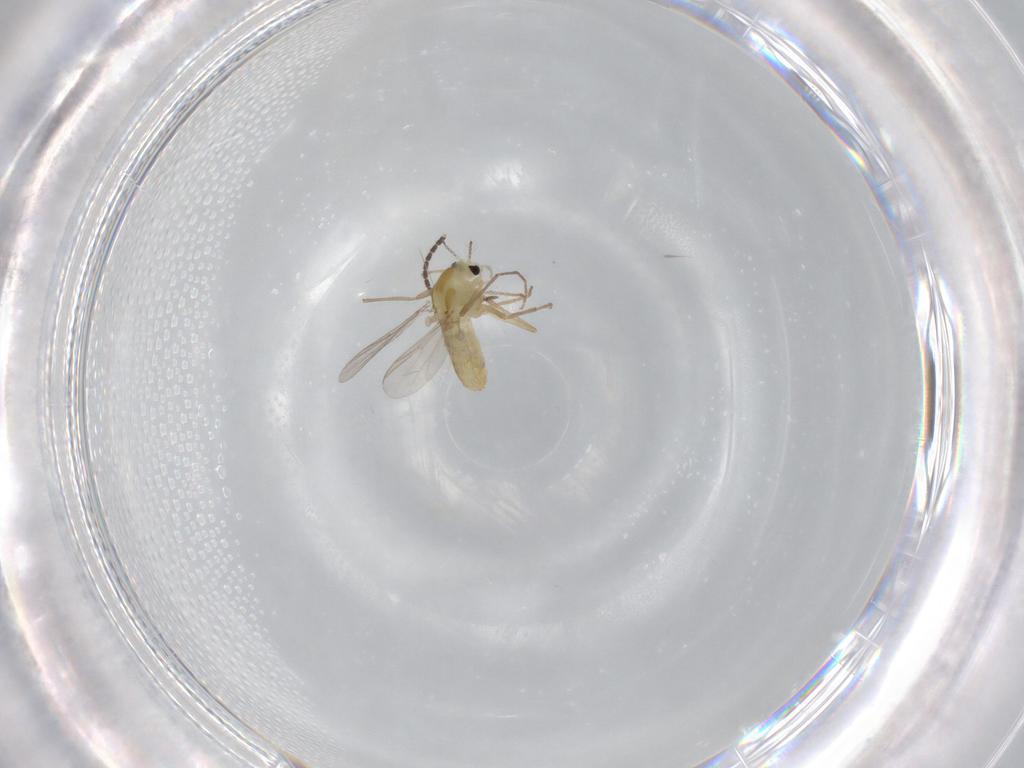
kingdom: Animalia
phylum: Arthropoda
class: Insecta
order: Diptera
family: Chironomidae
